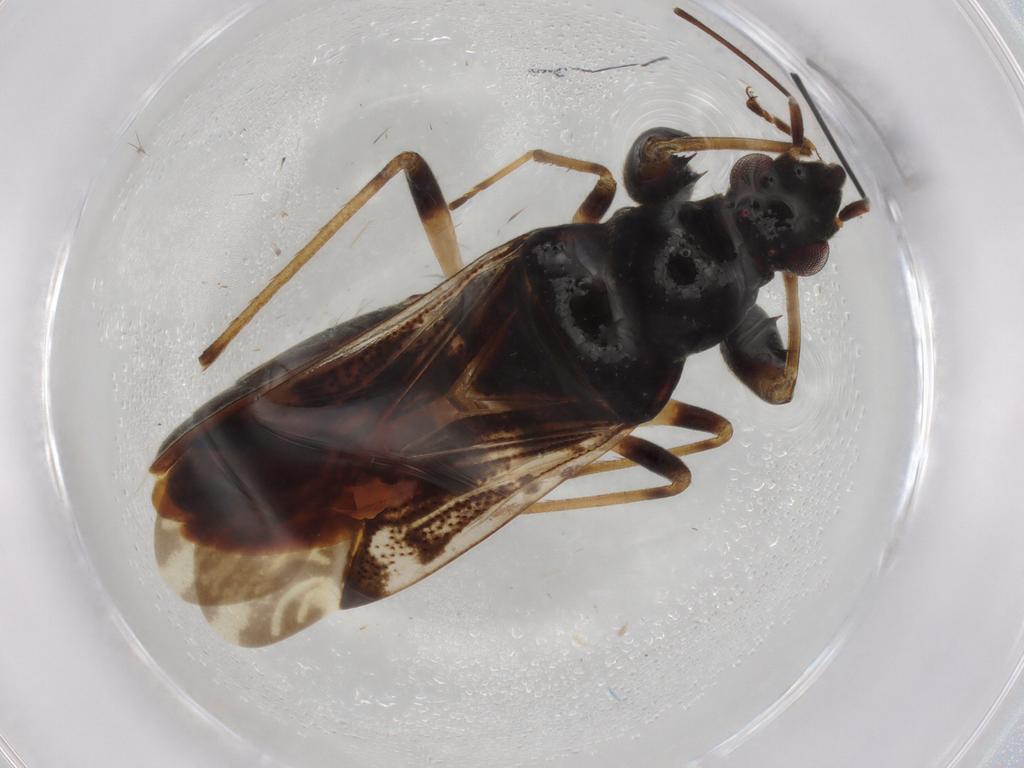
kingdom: Animalia
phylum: Arthropoda
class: Insecta
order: Hemiptera
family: Rhyparochromidae
